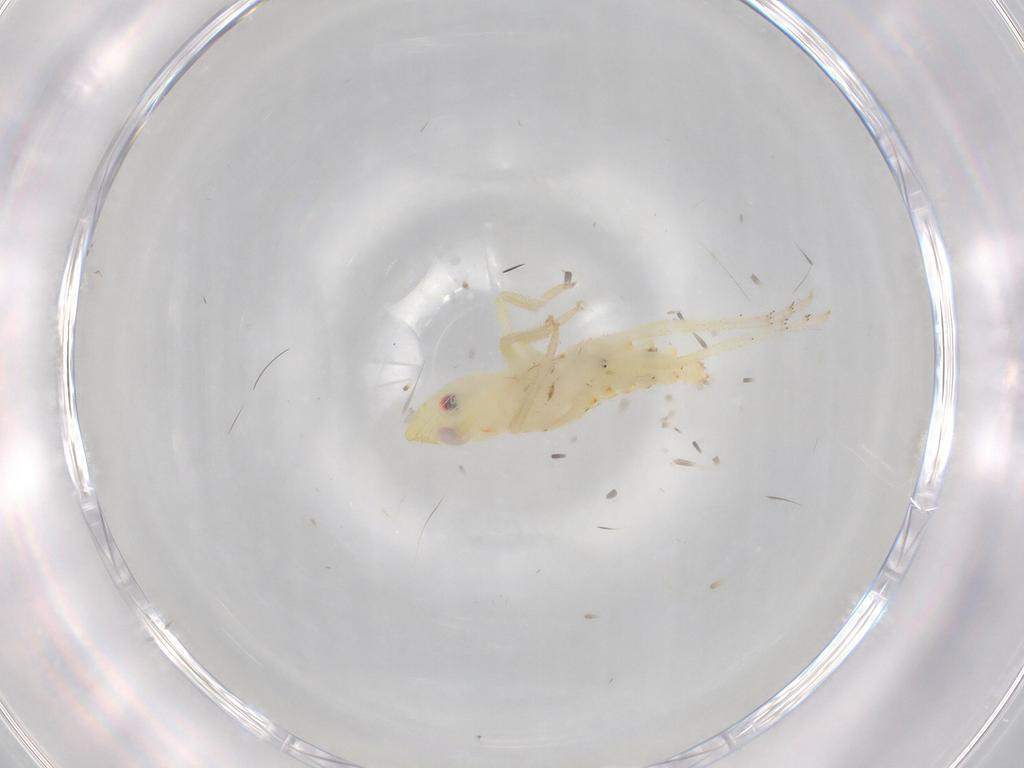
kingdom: Animalia
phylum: Arthropoda
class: Insecta
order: Hemiptera
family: Tropiduchidae
